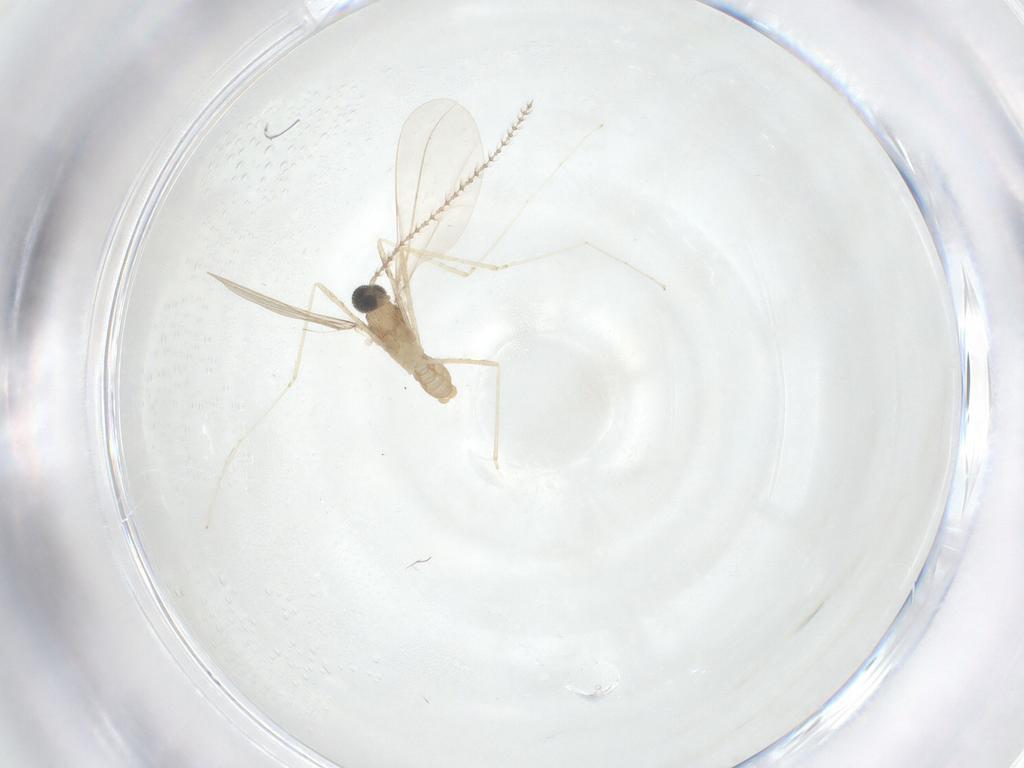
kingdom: Animalia
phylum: Arthropoda
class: Insecta
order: Diptera
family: Cecidomyiidae
